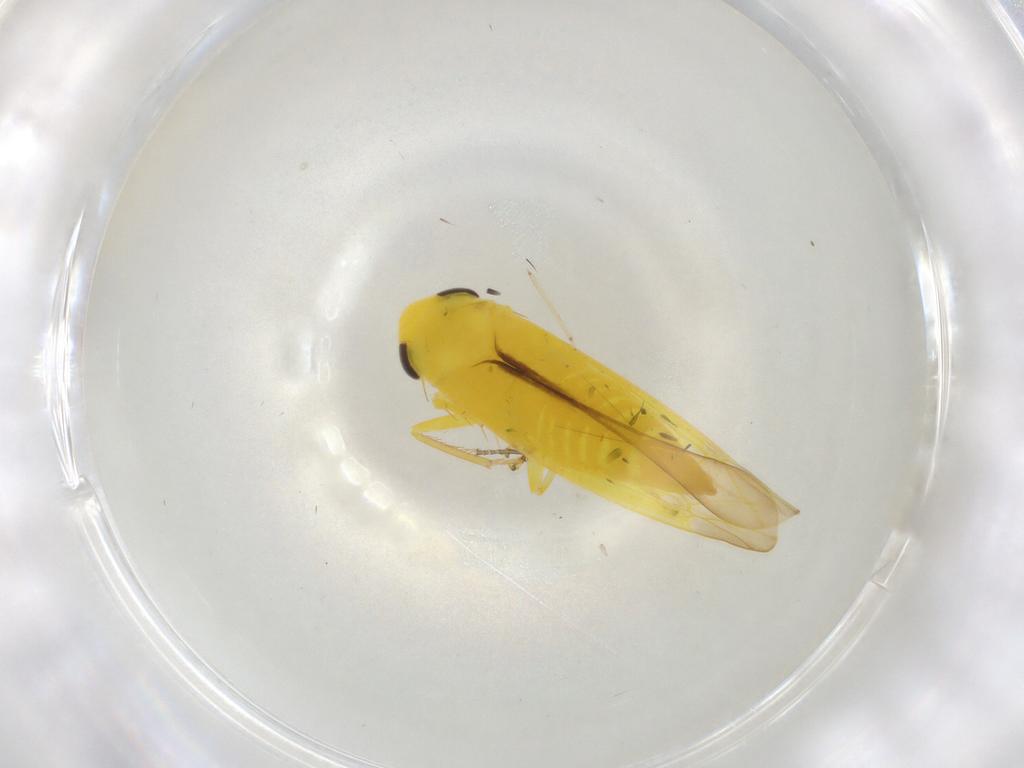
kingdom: Animalia
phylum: Arthropoda
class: Insecta
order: Hemiptera
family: Cicadellidae
